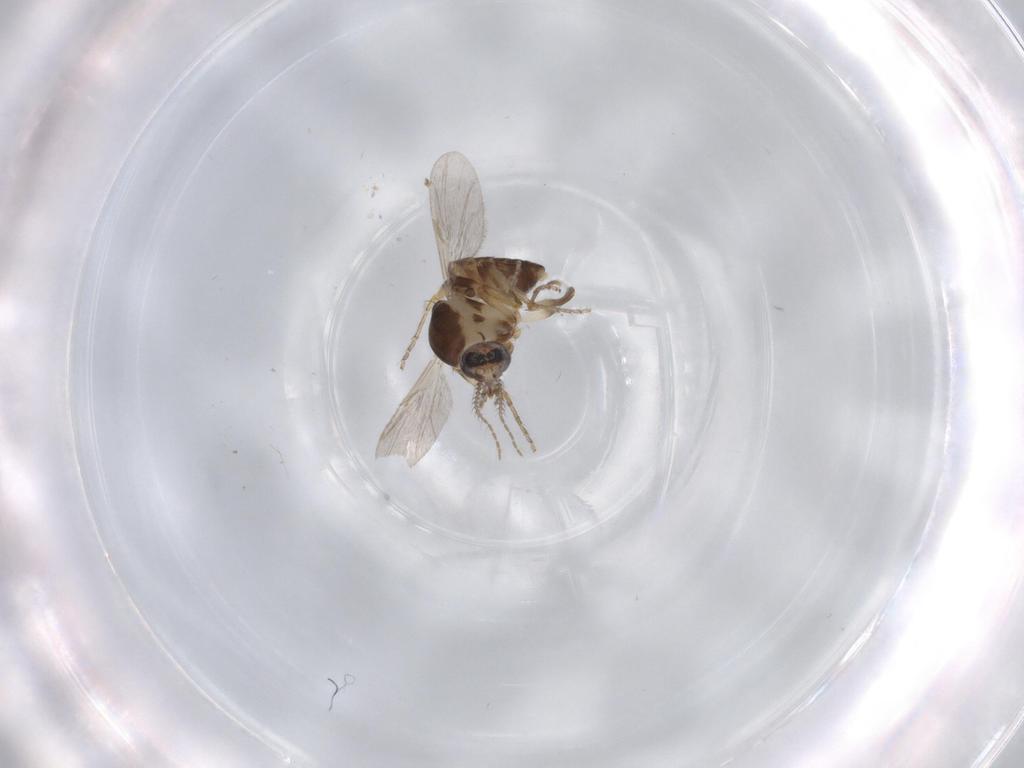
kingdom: Animalia
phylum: Arthropoda
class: Insecta
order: Diptera
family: Ceratopogonidae
